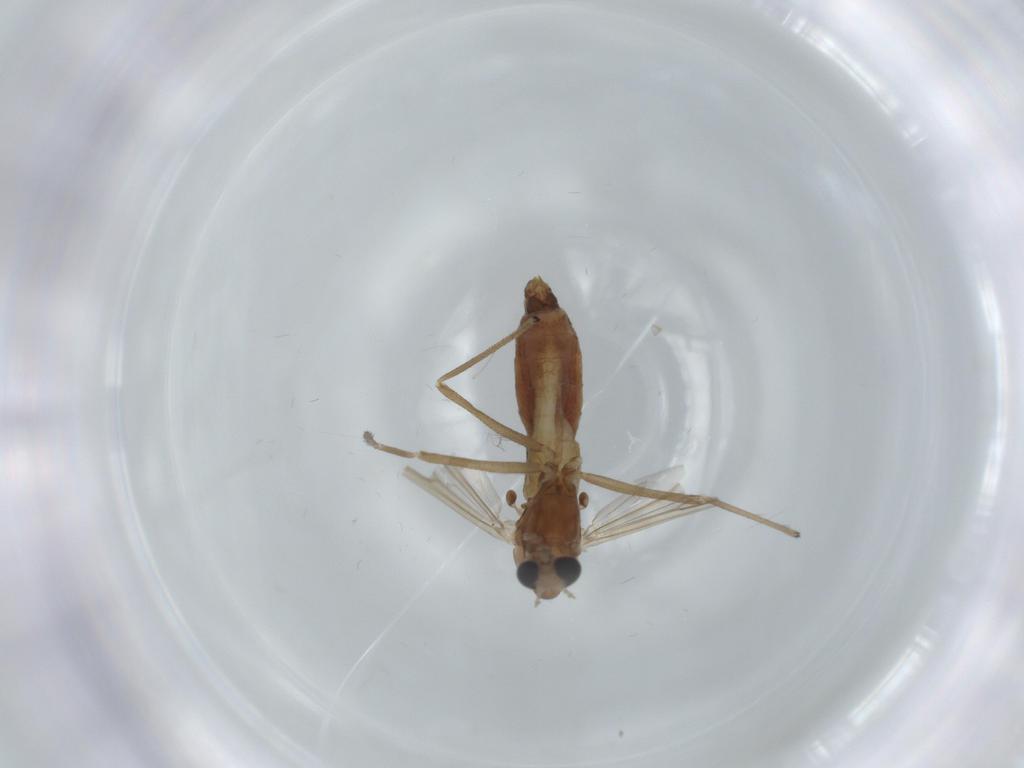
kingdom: Animalia
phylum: Arthropoda
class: Insecta
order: Diptera
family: Chironomidae
